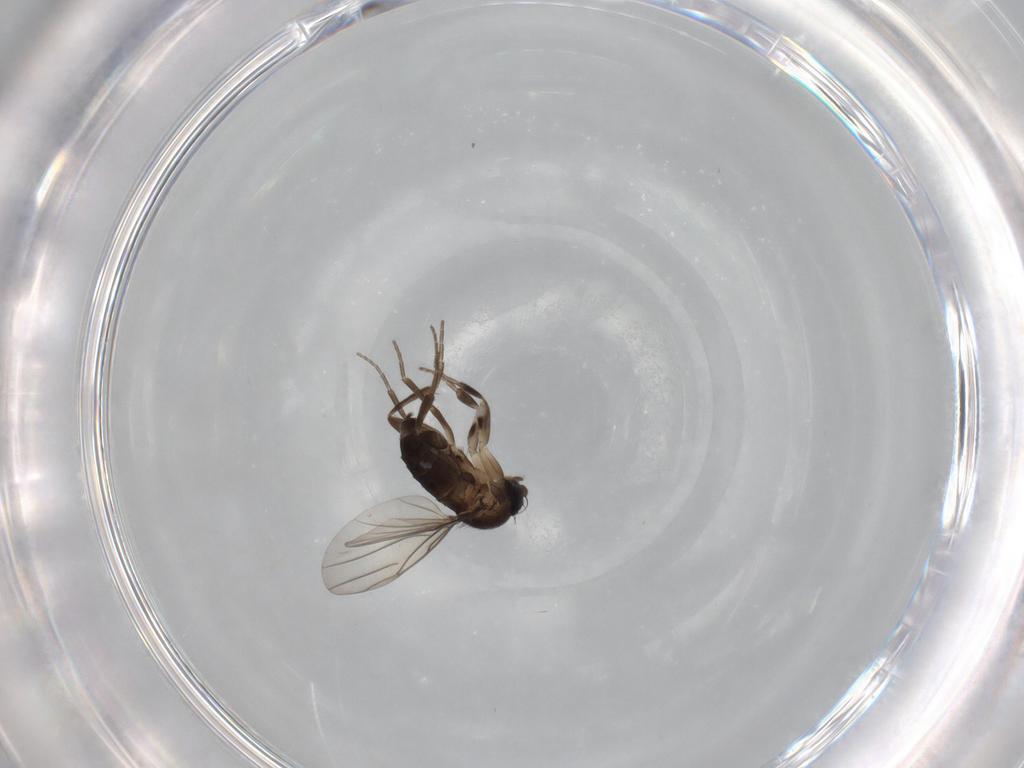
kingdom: Animalia
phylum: Arthropoda
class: Insecta
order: Diptera
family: Phoridae
